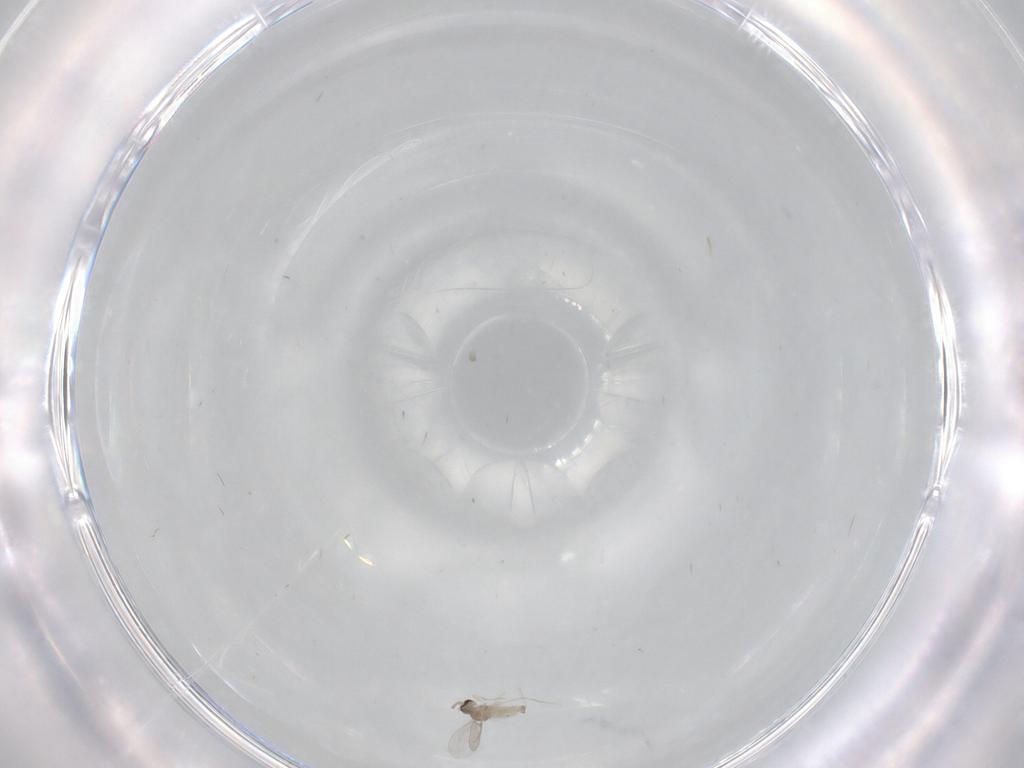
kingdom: Animalia
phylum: Arthropoda
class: Insecta
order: Diptera
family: Cecidomyiidae
